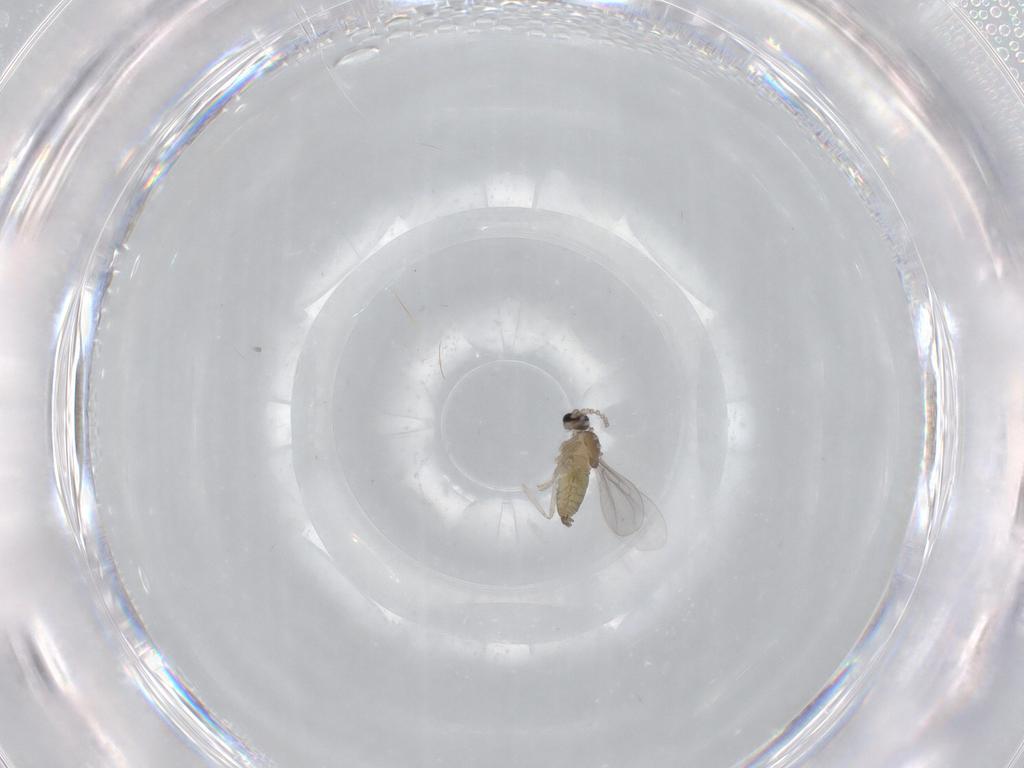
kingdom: Animalia
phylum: Arthropoda
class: Insecta
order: Diptera
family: Cecidomyiidae
